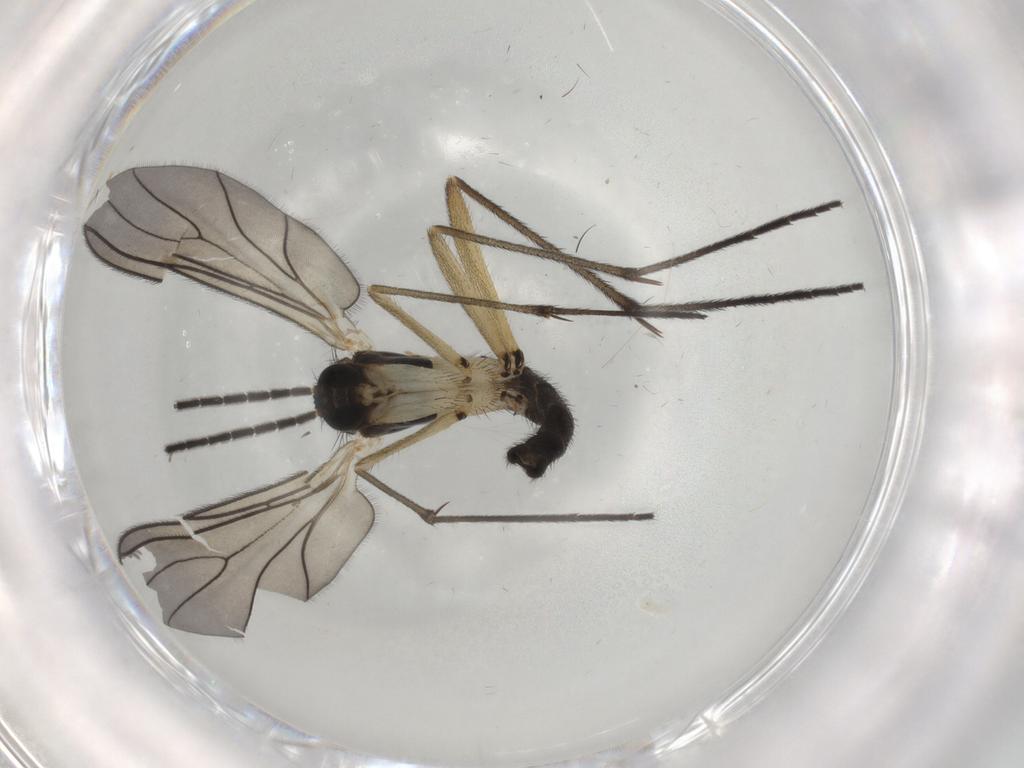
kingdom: Animalia
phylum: Arthropoda
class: Insecta
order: Diptera
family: Sciaridae
